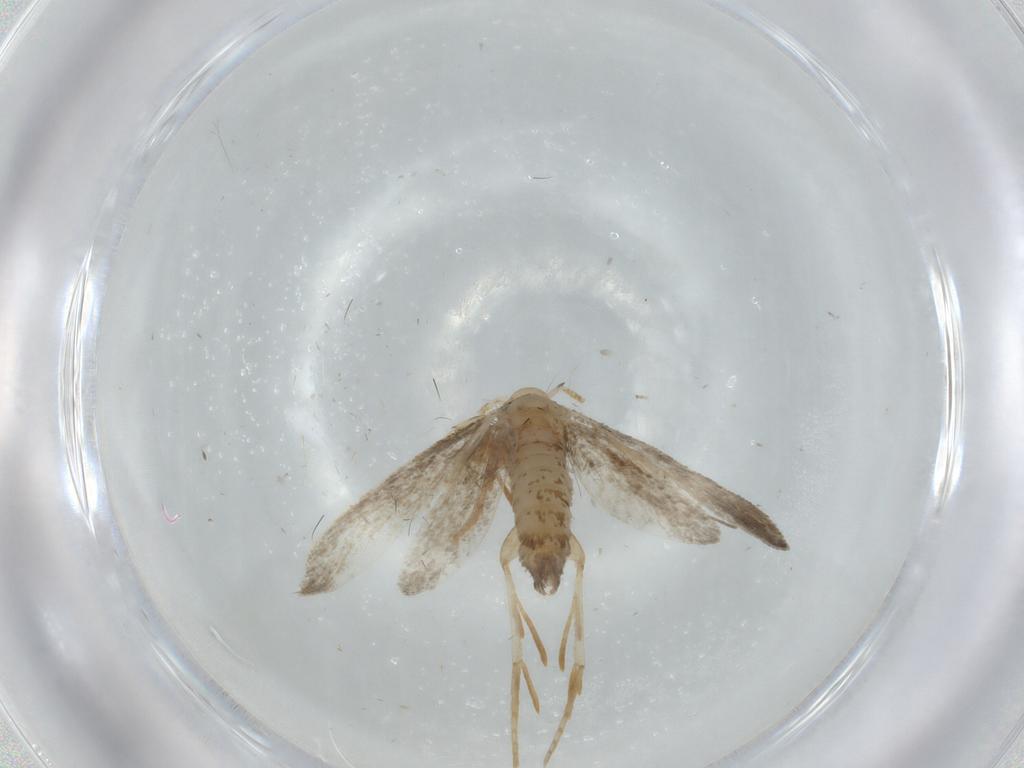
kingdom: Animalia
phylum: Arthropoda
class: Insecta
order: Lepidoptera
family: Psychidae
